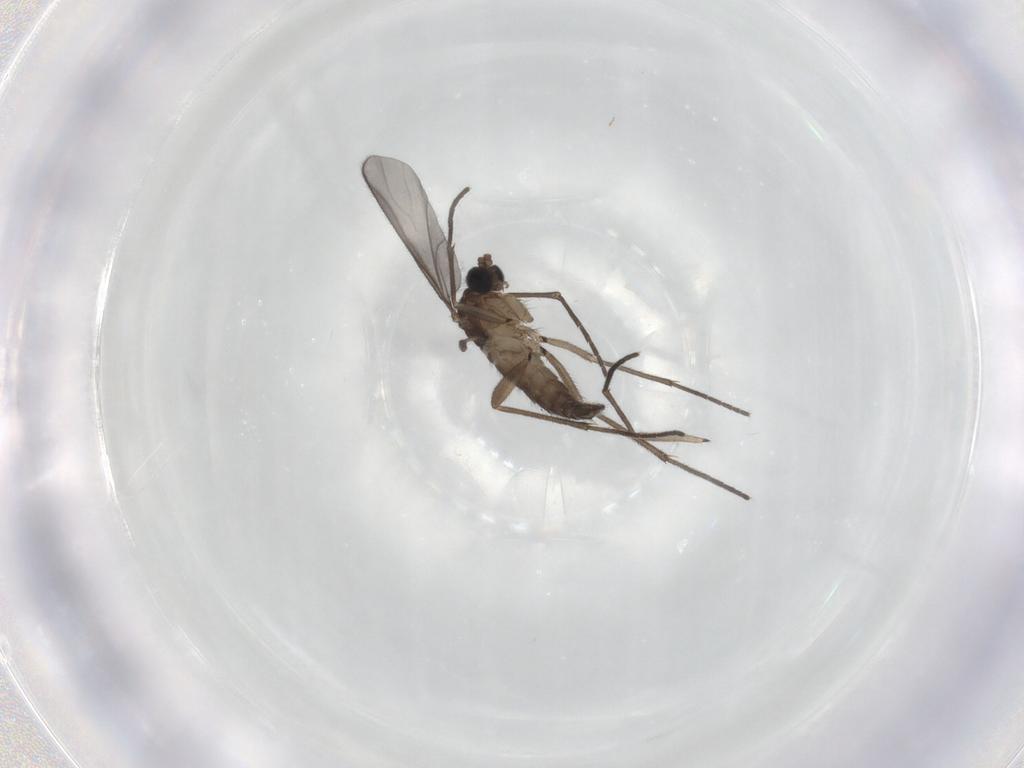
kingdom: Animalia
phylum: Arthropoda
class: Insecta
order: Diptera
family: Sciaridae
